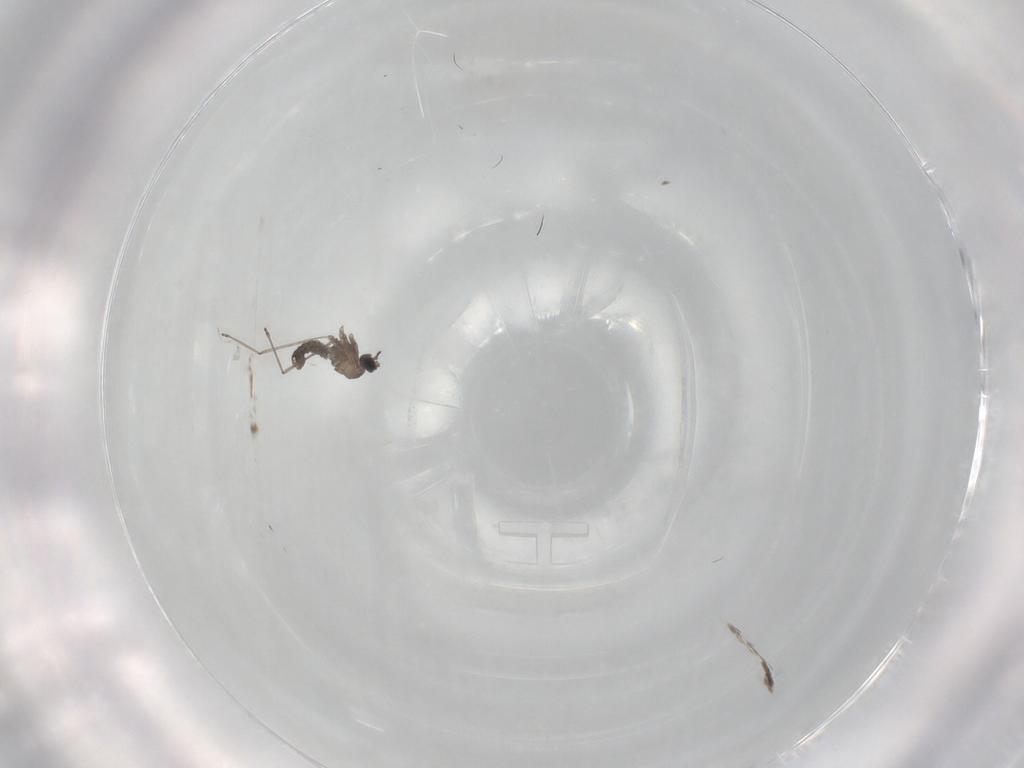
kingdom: Animalia
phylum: Arthropoda
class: Insecta
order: Diptera
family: Cecidomyiidae
